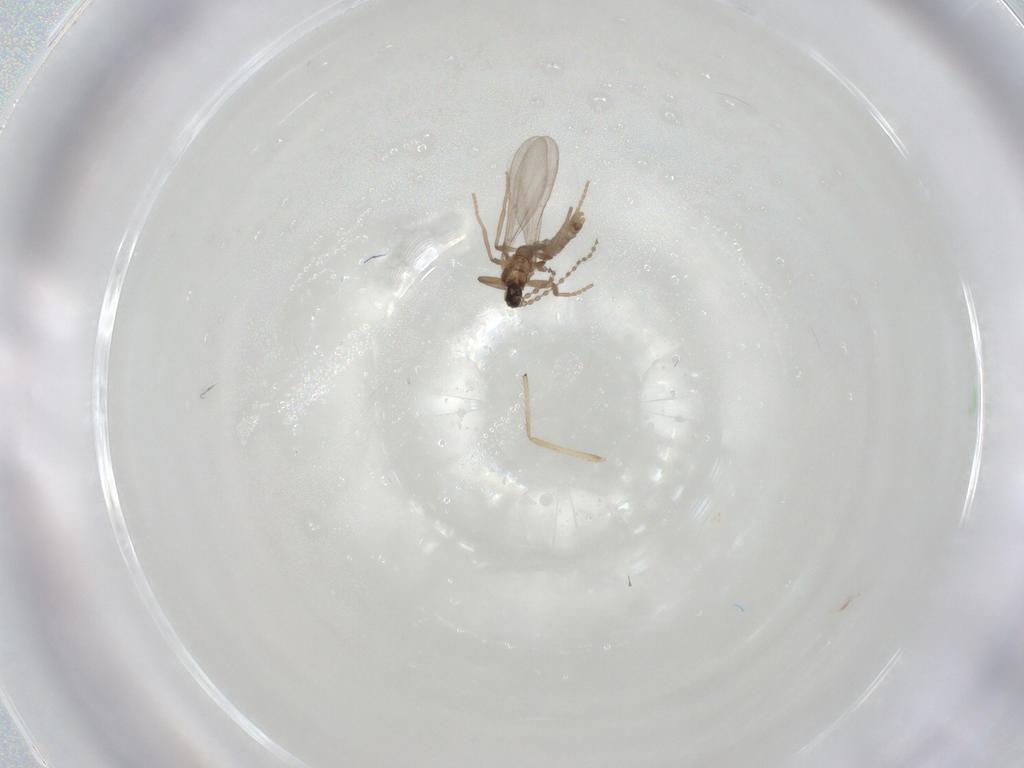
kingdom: Animalia
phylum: Arthropoda
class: Insecta
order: Diptera
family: Cecidomyiidae
